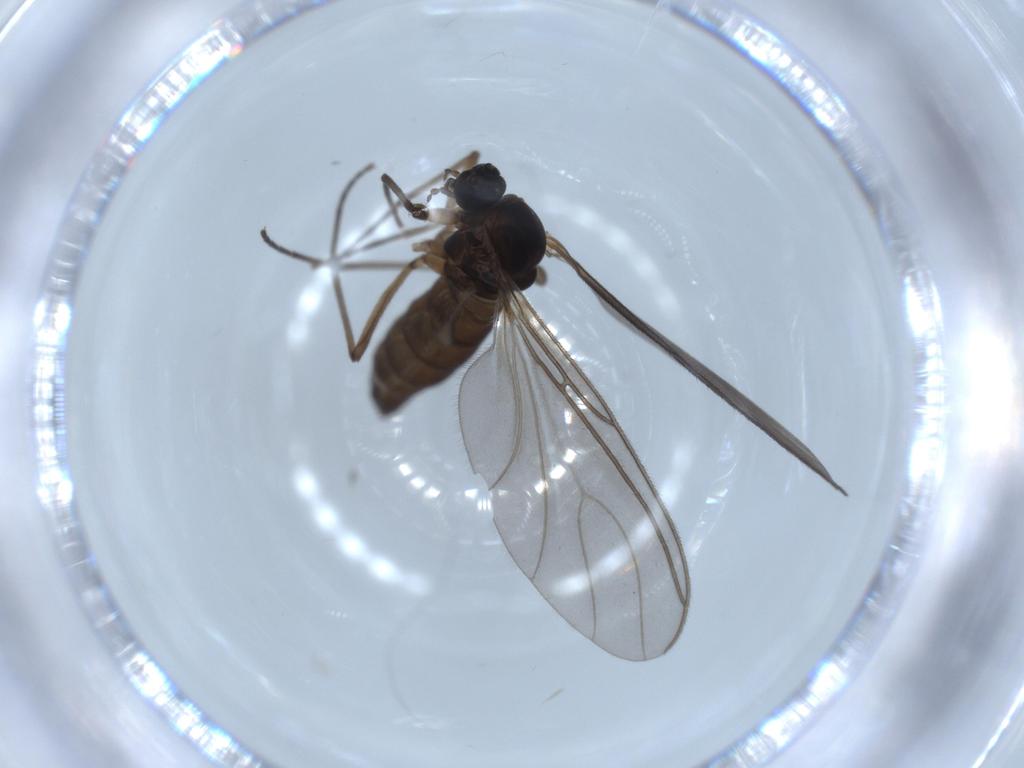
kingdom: Animalia
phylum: Arthropoda
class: Insecta
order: Diptera
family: Sciaridae
